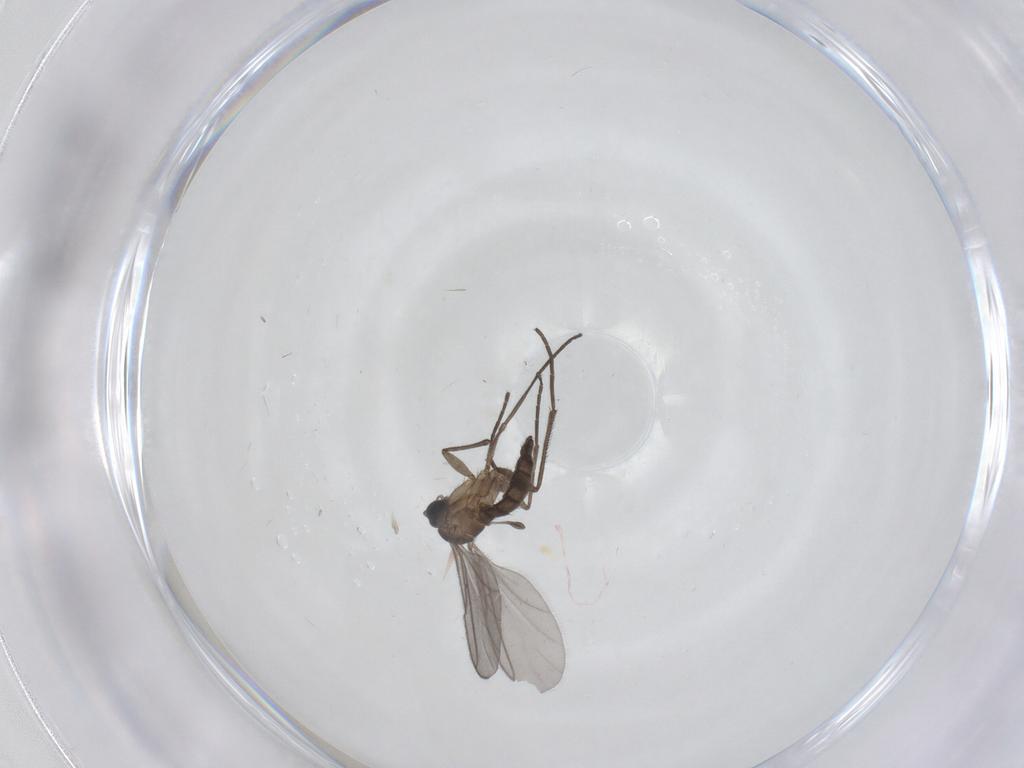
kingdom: Animalia
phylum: Arthropoda
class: Insecta
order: Diptera
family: Sciaridae
